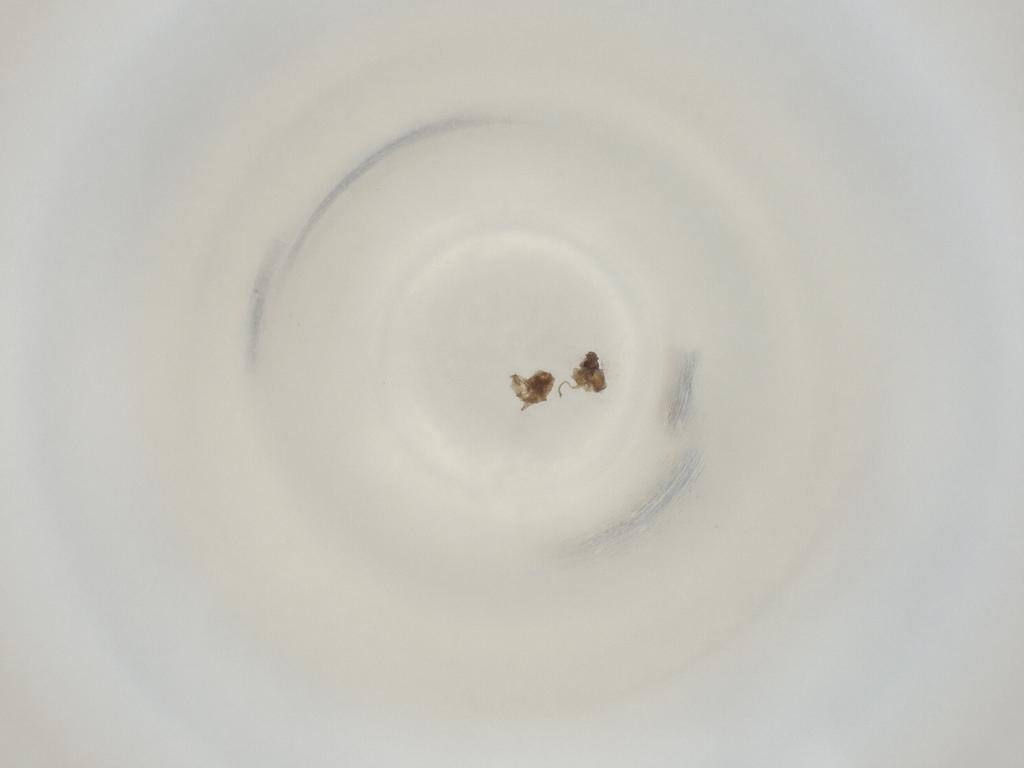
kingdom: Animalia
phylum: Arthropoda
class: Insecta
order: Diptera
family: Cecidomyiidae
